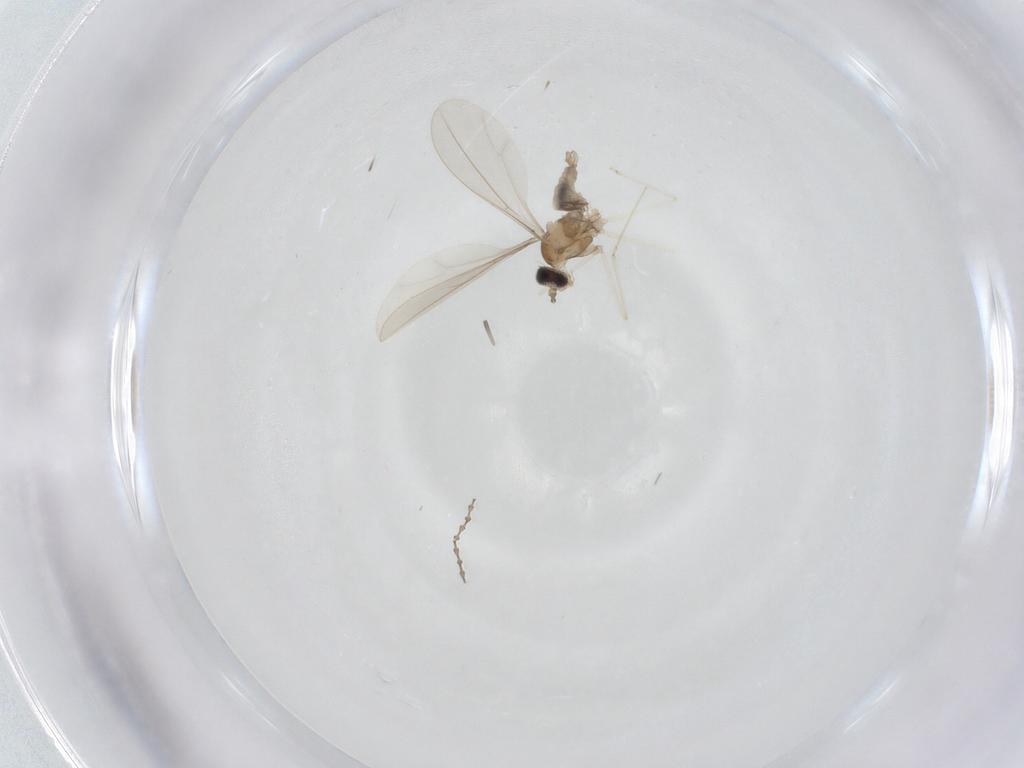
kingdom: Animalia
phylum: Arthropoda
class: Insecta
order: Diptera
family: Cecidomyiidae
